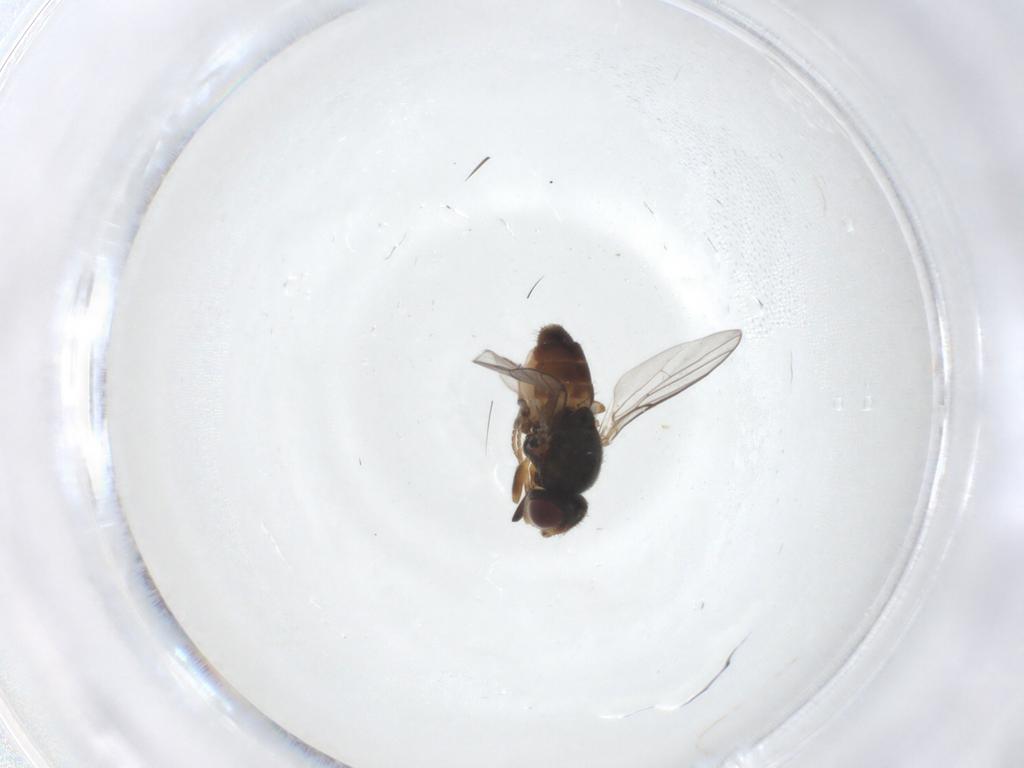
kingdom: Animalia
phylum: Arthropoda
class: Insecta
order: Diptera
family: Chloropidae
